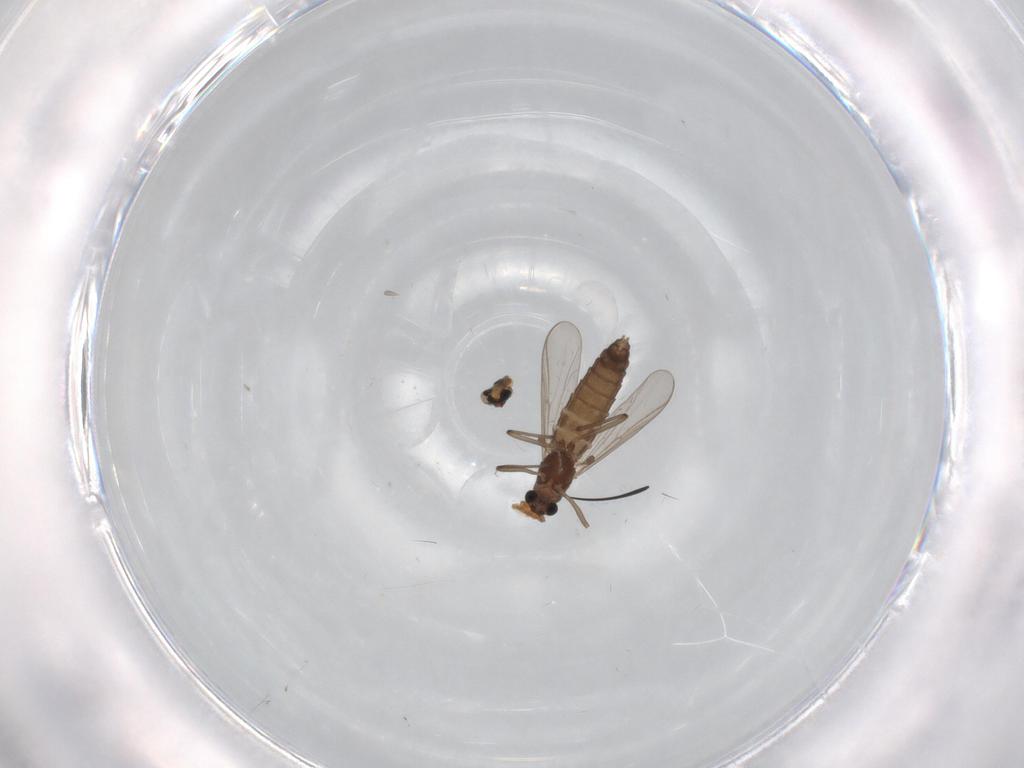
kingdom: Animalia
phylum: Arthropoda
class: Insecta
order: Diptera
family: Chironomidae
